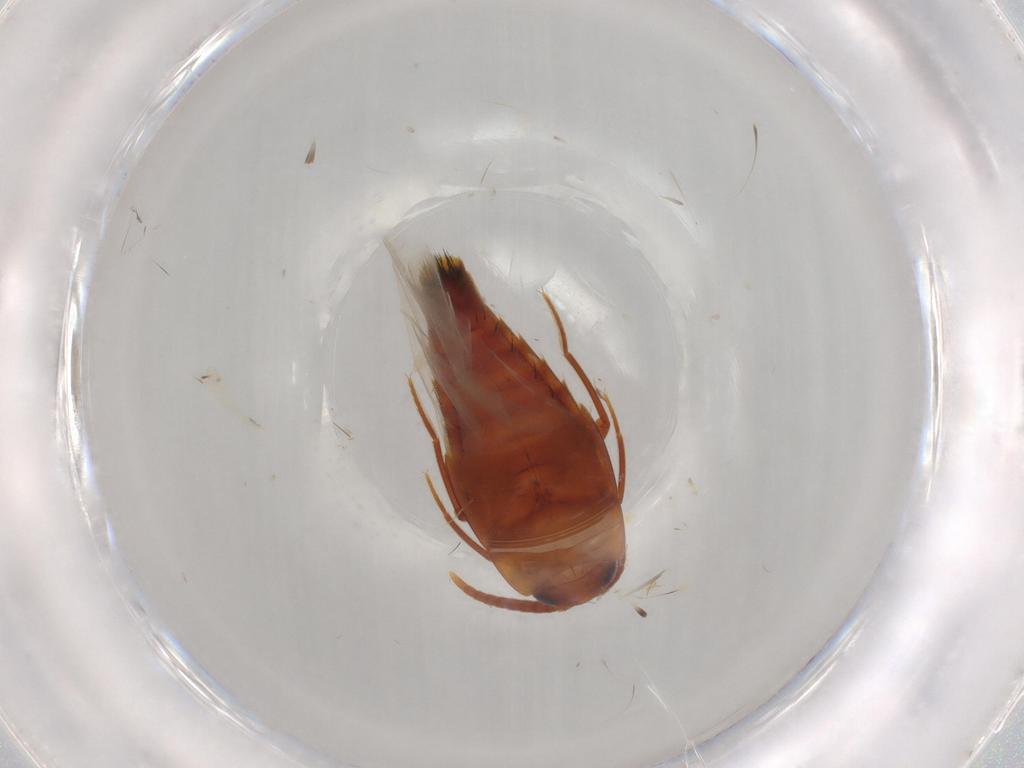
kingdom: Animalia
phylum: Arthropoda
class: Insecta
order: Coleoptera
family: Staphylinidae
